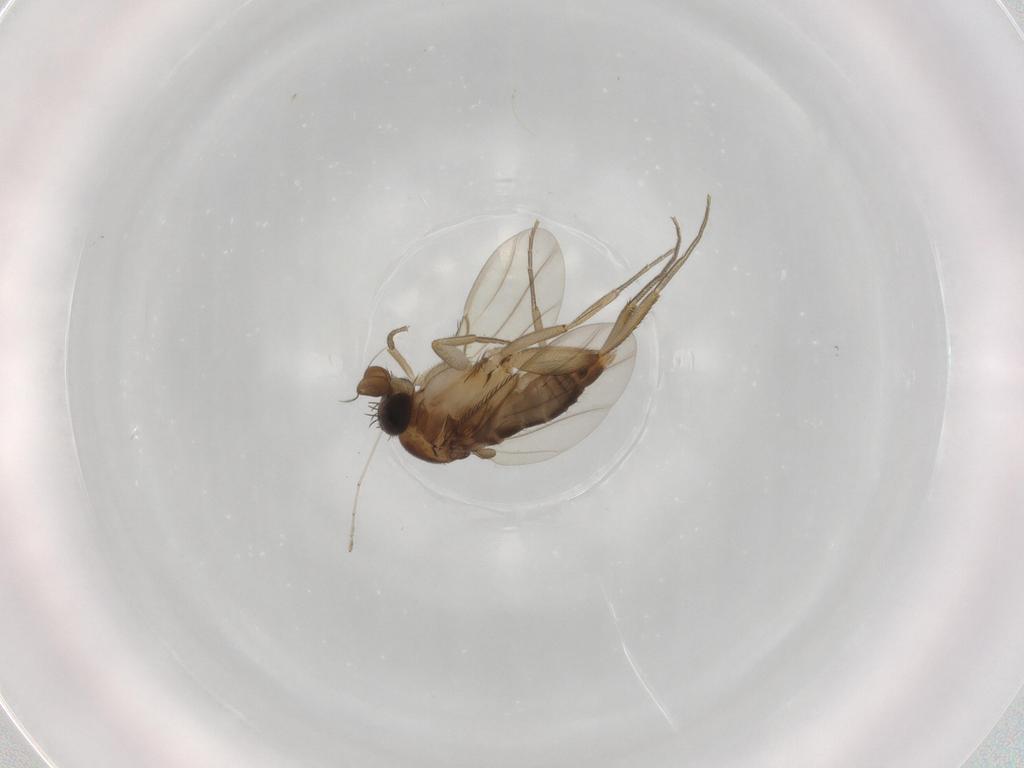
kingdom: Animalia
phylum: Arthropoda
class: Insecta
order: Diptera
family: Phoridae
